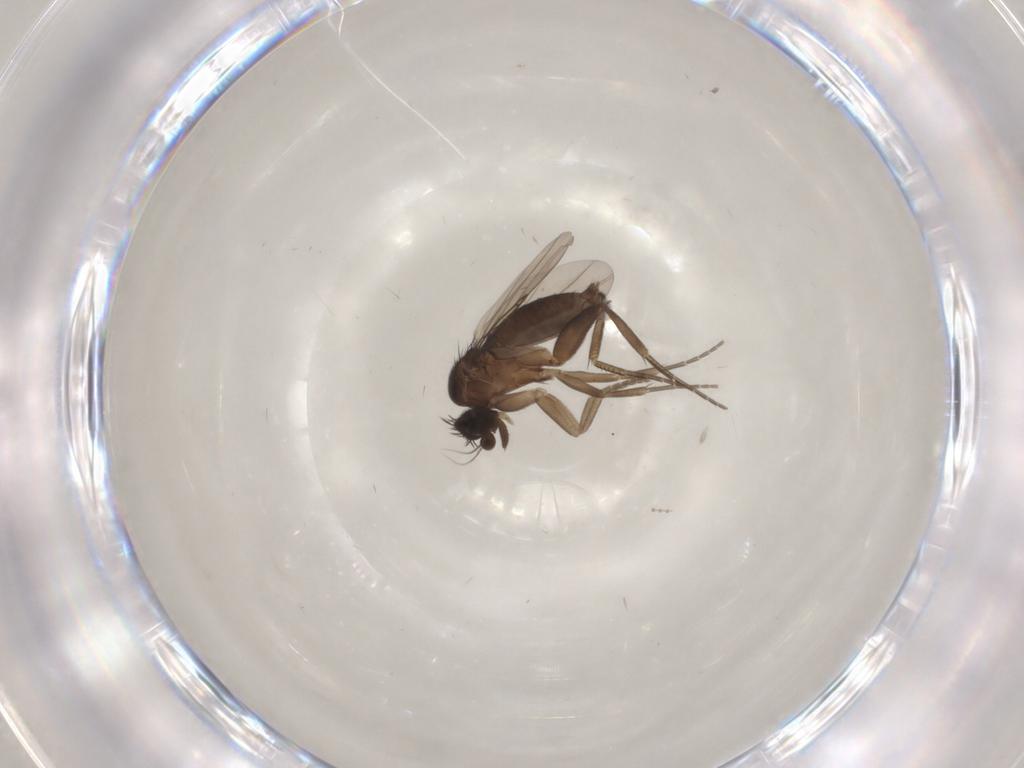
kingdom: Animalia
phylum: Arthropoda
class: Insecta
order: Diptera
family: Phoridae
